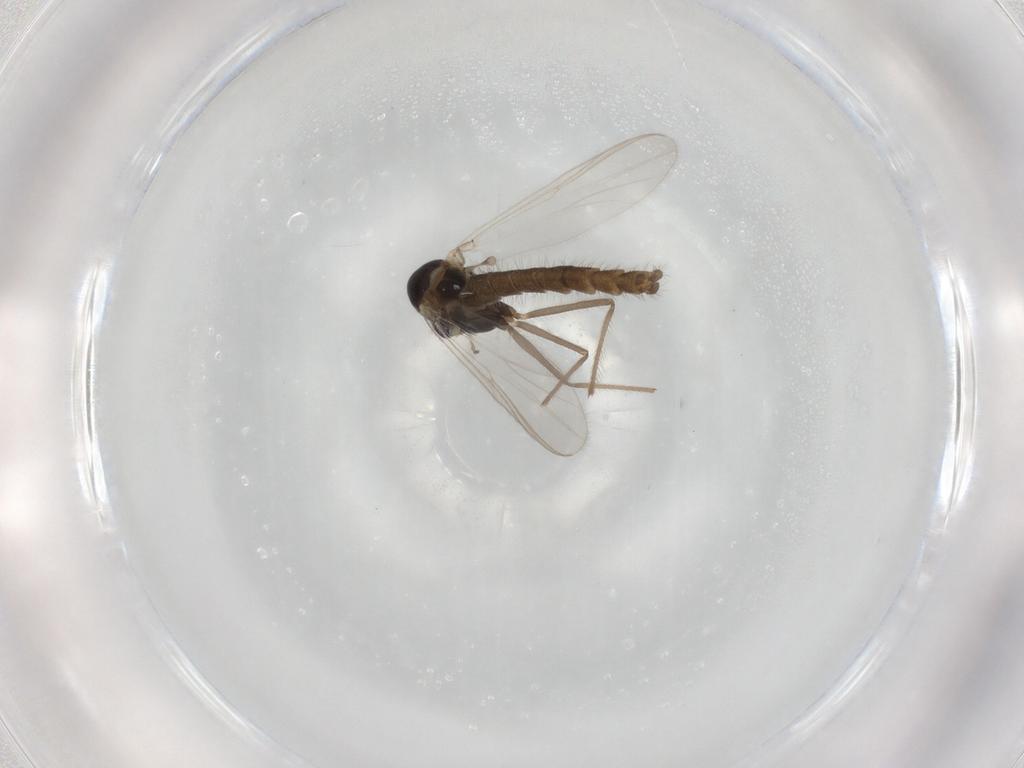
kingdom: Animalia
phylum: Arthropoda
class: Insecta
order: Diptera
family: Chironomidae
